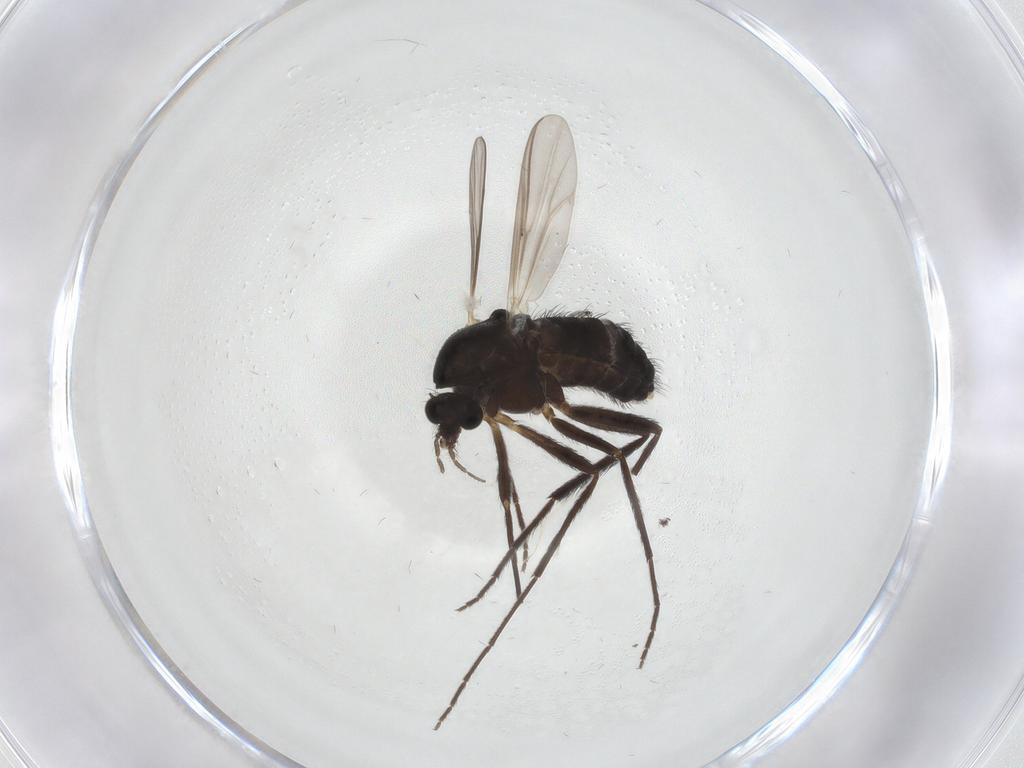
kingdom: Animalia
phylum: Arthropoda
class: Insecta
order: Diptera
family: Chironomidae
